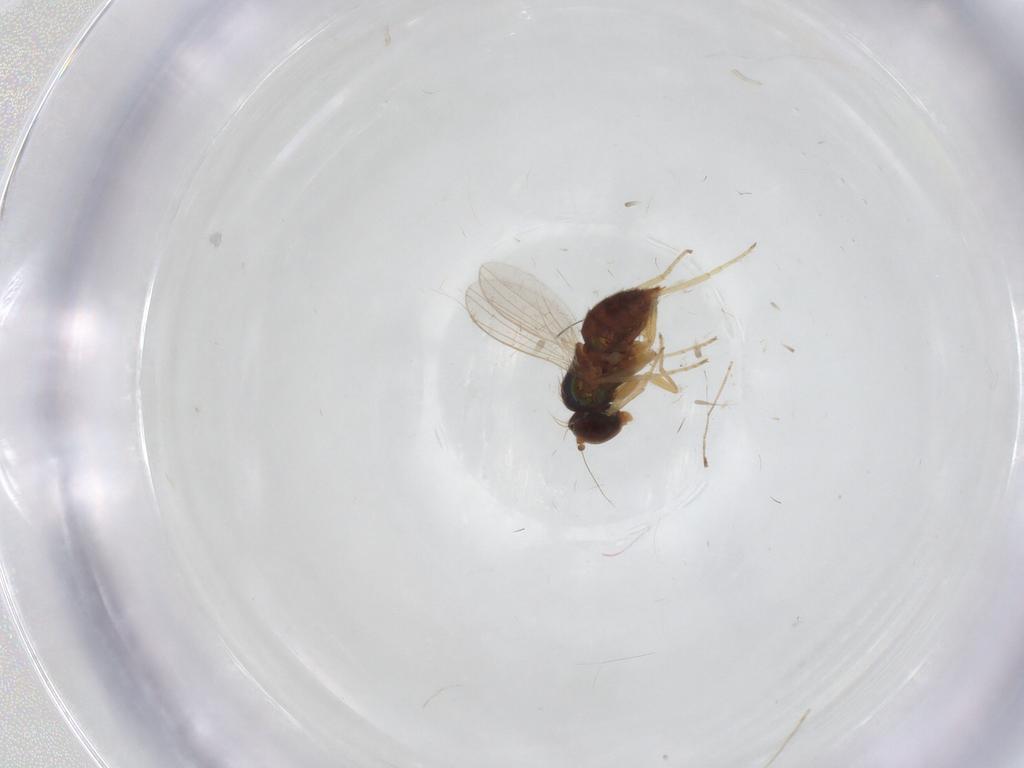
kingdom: Animalia
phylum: Arthropoda
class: Insecta
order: Diptera
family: Dolichopodidae
